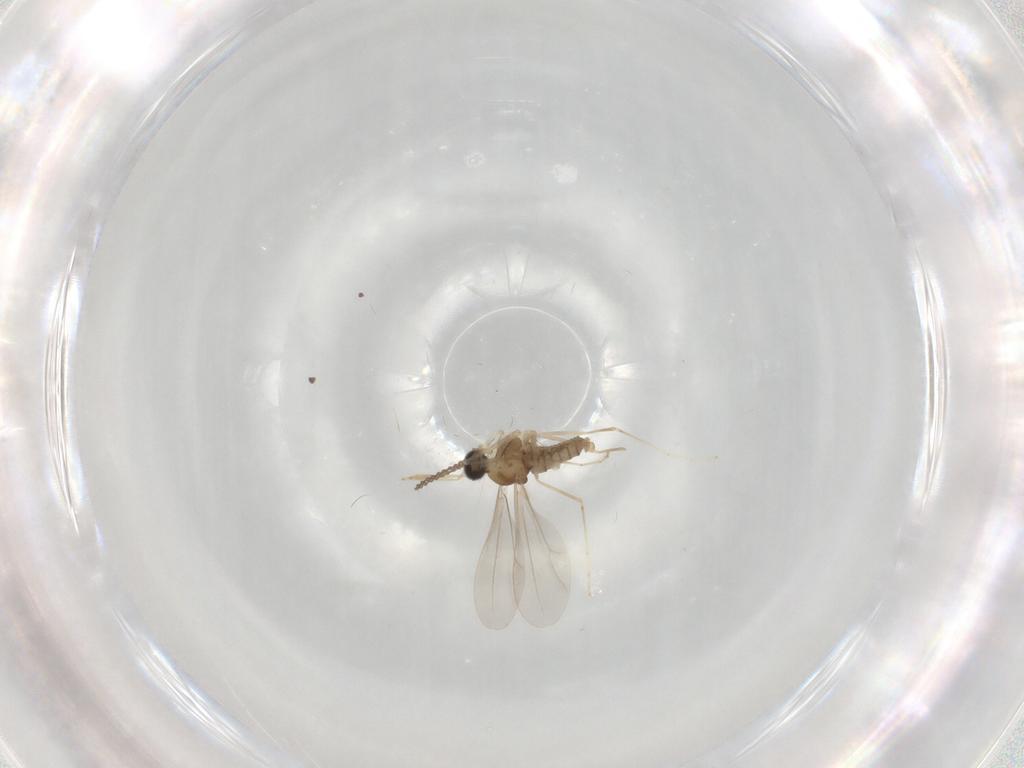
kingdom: Animalia
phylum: Arthropoda
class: Insecta
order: Diptera
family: Cecidomyiidae
